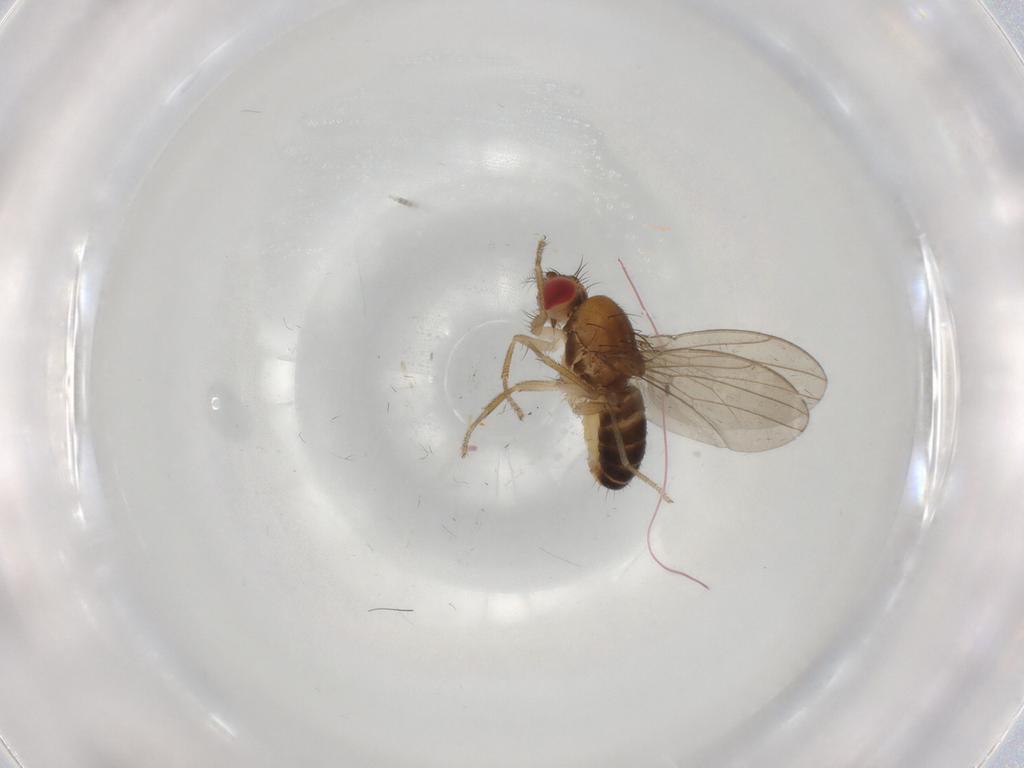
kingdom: Animalia
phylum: Arthropoda
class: Insecta
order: Diptera
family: Drosophilidae
